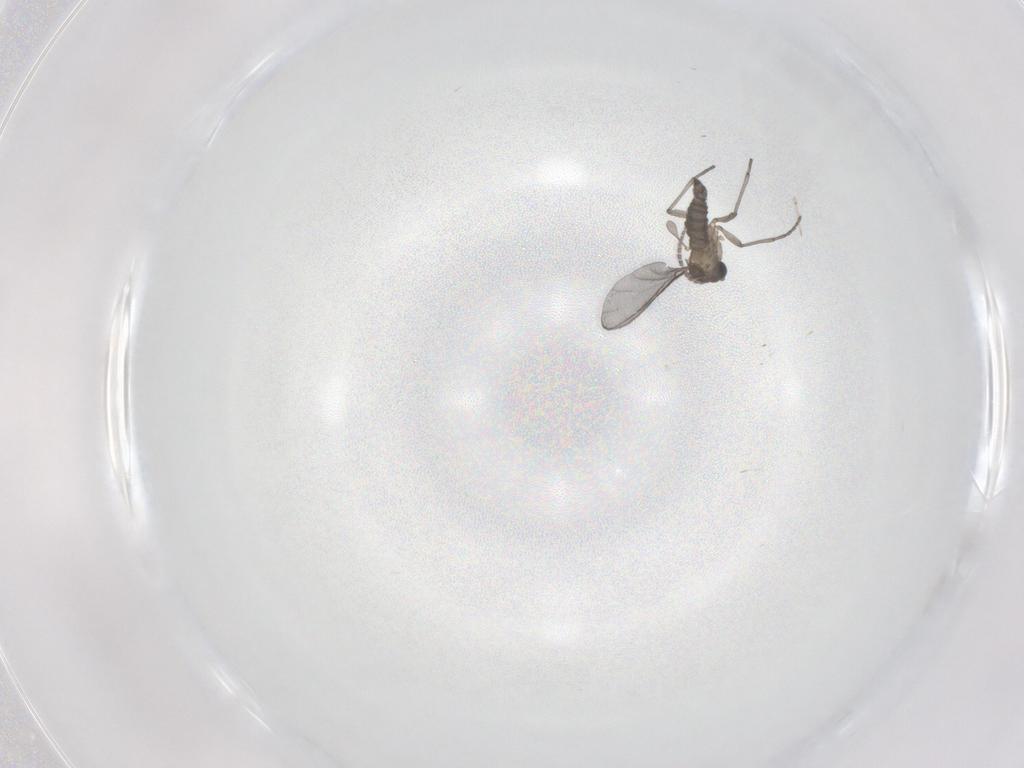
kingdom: Animalia
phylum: Arthropoda
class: Insecta
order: Diptera
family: Sciaridae
